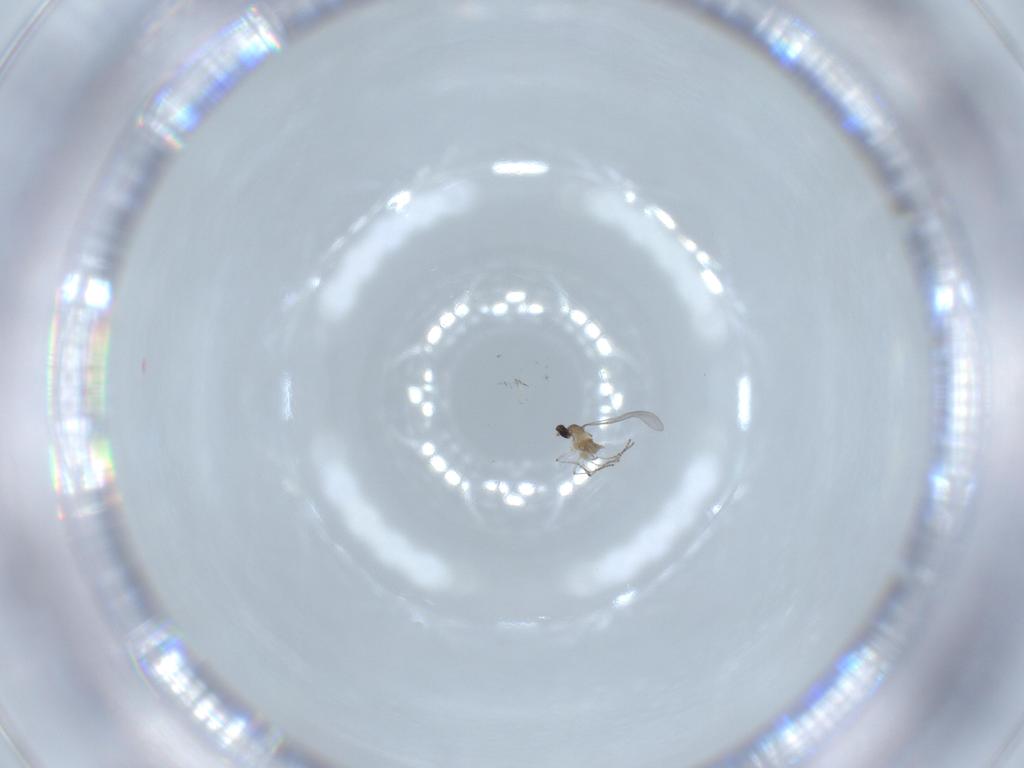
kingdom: Animalia
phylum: Arthropoda
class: Insecta
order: Diptera
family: Cecidomyiidae
